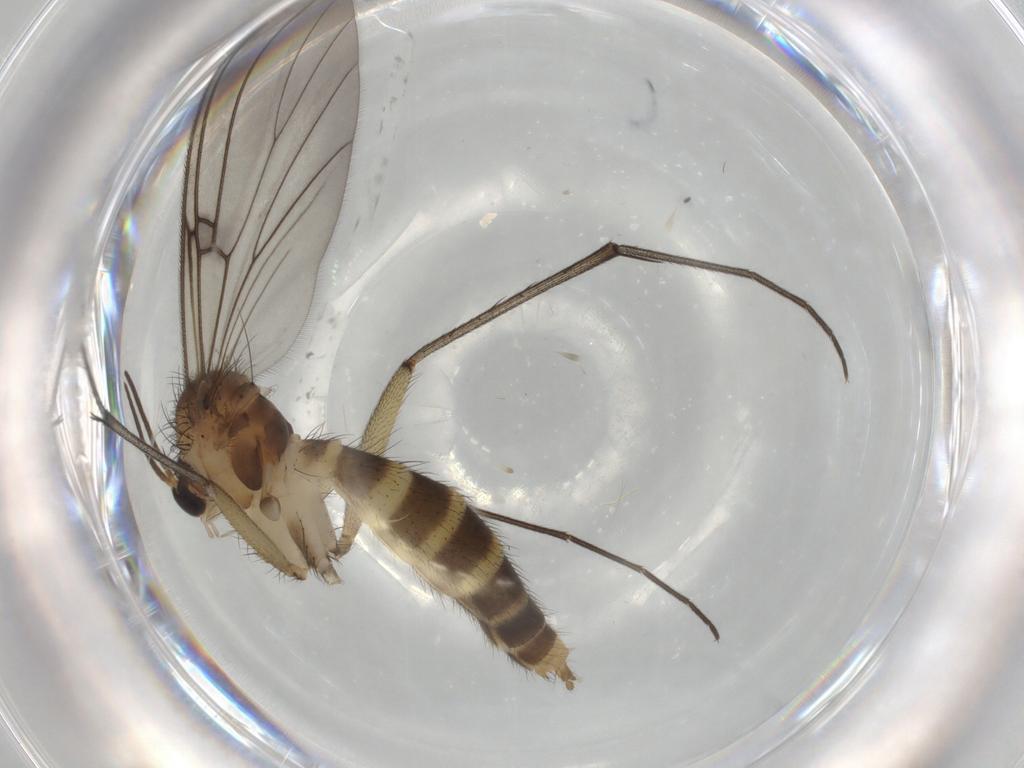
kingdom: Animalia
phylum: Arthropoda
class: Insecta
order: Diptera
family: Mycetophilidae
